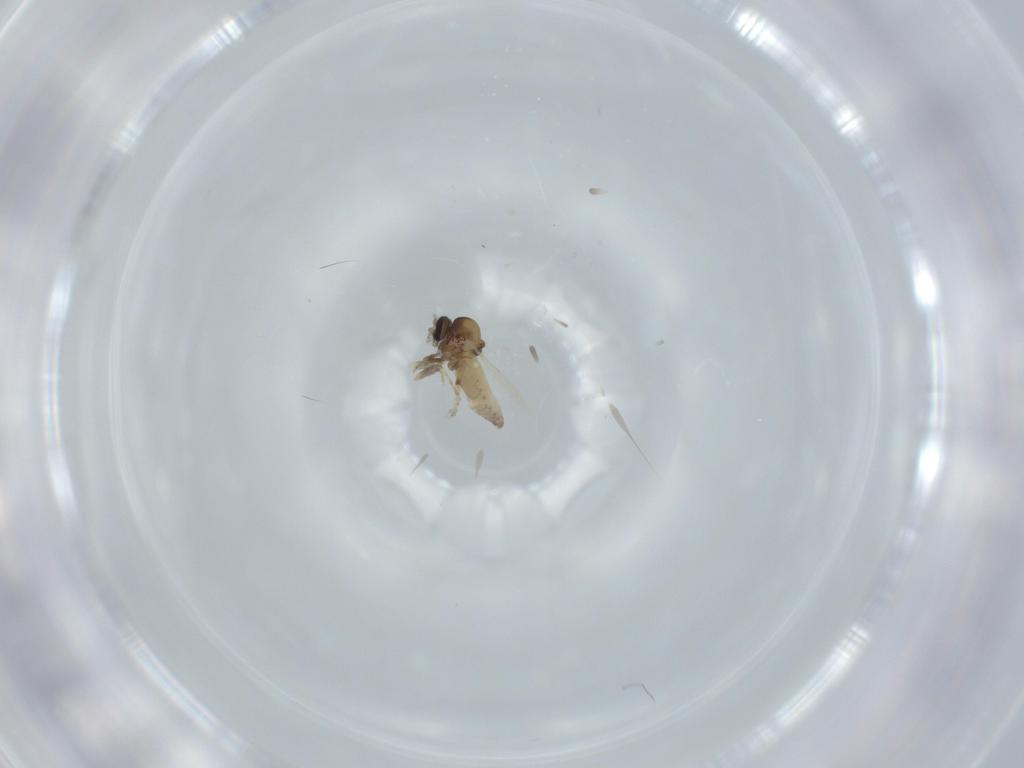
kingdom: Animalia
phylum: Arthropoda
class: Insecta
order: Diptera
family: Ceratopogonidae
